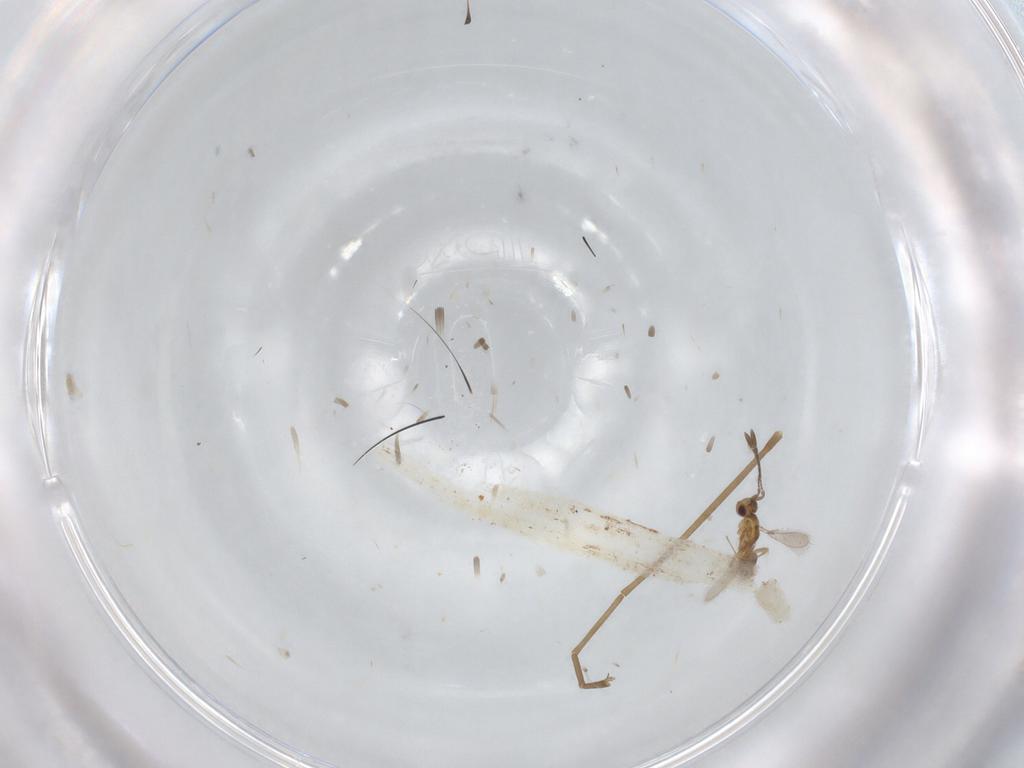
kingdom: Animalia
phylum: Arthropoda
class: Insecta
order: Hymenoptera
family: Mymaridae
